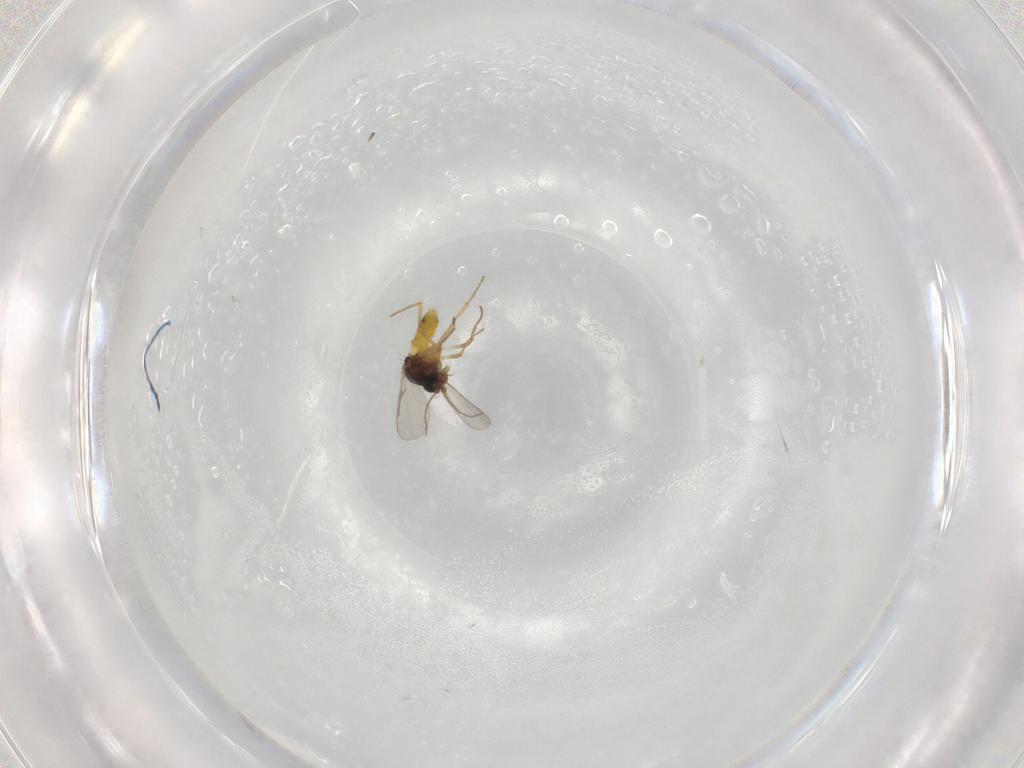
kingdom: Animalia
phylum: Arthropoda
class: Insecta
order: Diptera
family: Ceratopogonidae
